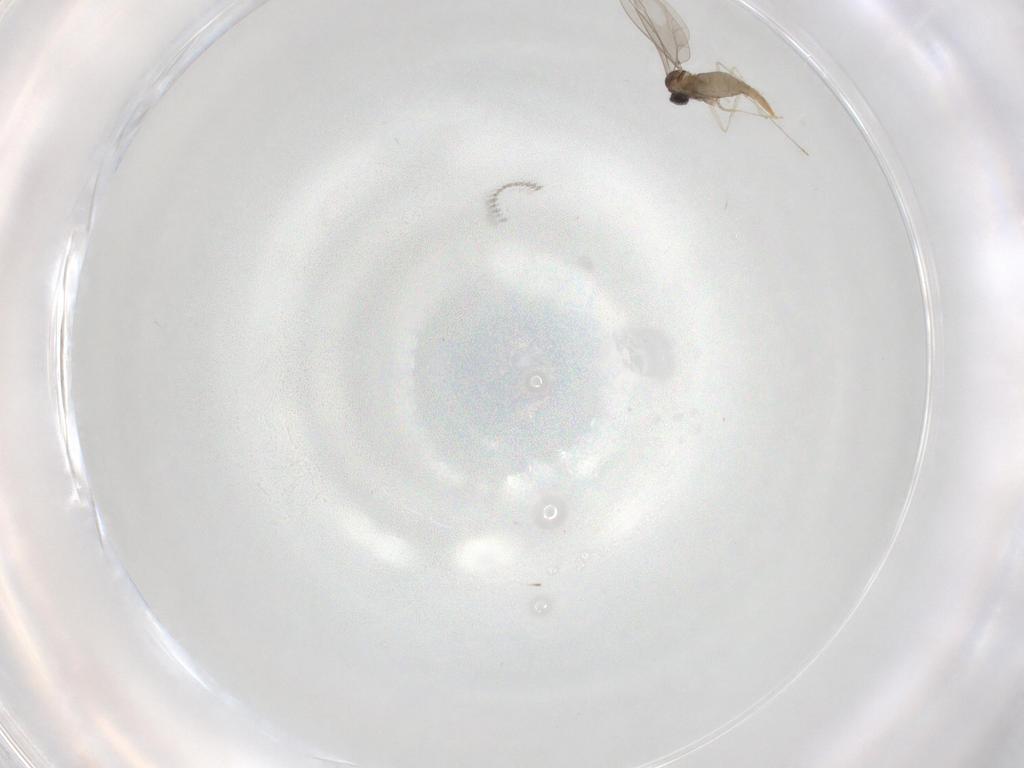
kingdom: Animalia
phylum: Arthropoda
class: Insecta
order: Diptera
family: Cecidomyiidae
